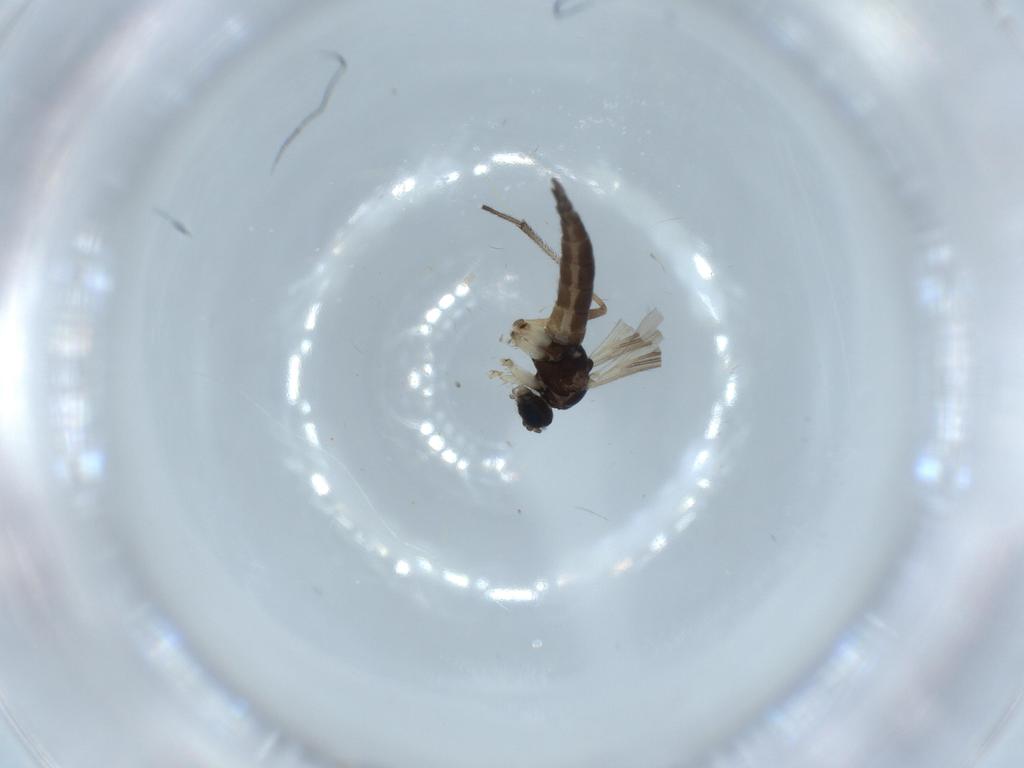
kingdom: Animalia
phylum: Arthropoda
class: Insecta
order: Diptera
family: Sciaridae
